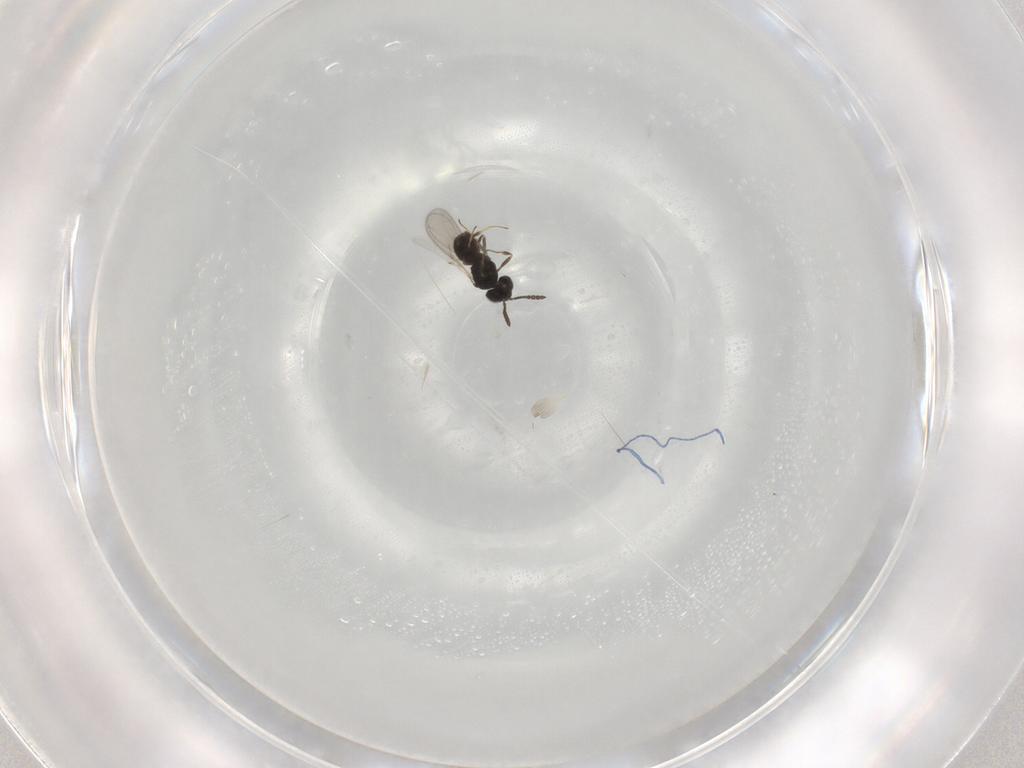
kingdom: Animalia
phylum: Arthropoda
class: Insecta
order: Hymenoptera
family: Scelionidae
